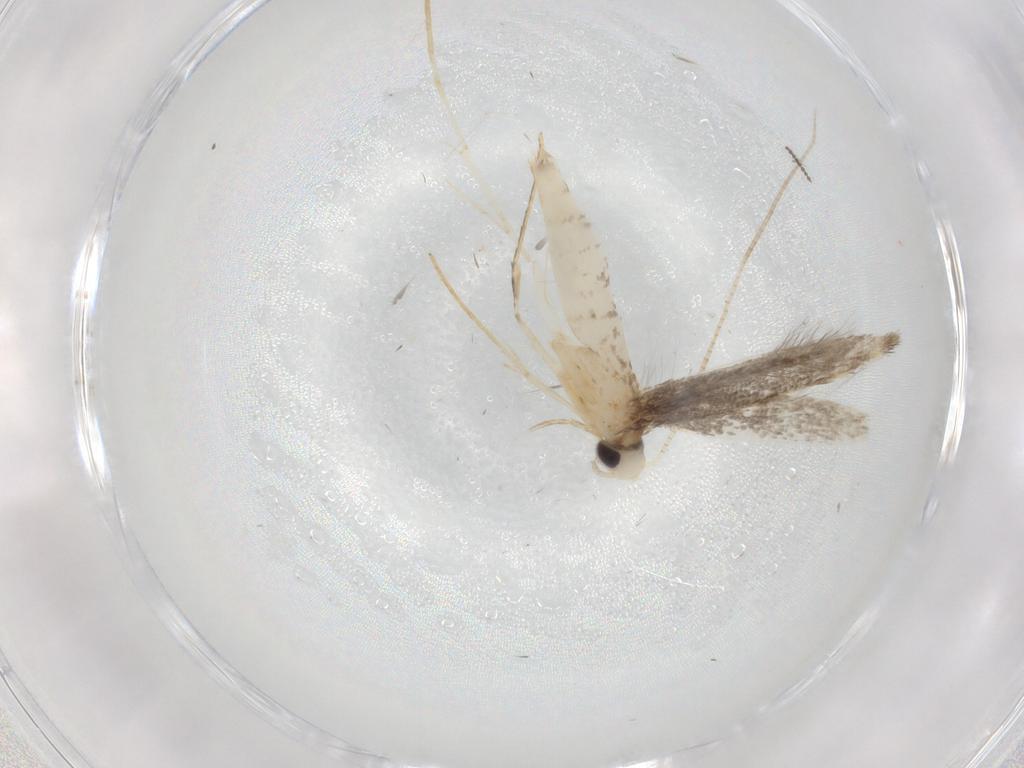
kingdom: Animalia
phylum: Arthropoda
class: Insecta
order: Lepidoptera
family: Gracillariidae
